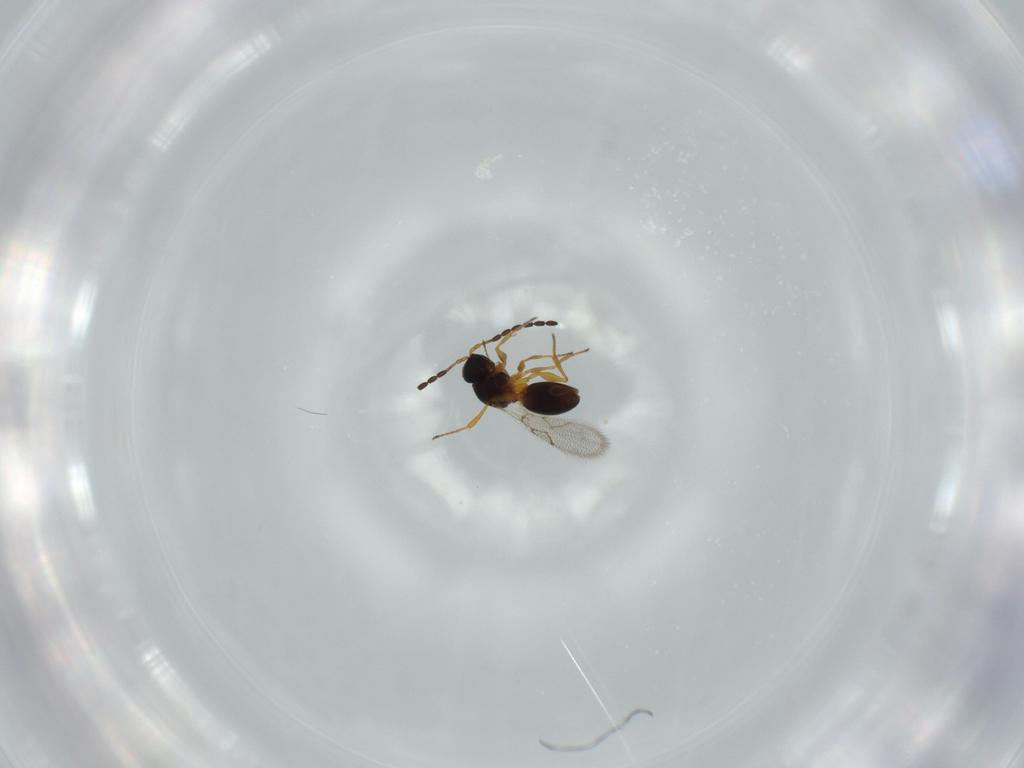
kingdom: Animalia
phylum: Arthropoda
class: Insecta
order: Hymenoptera
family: Figitidae
